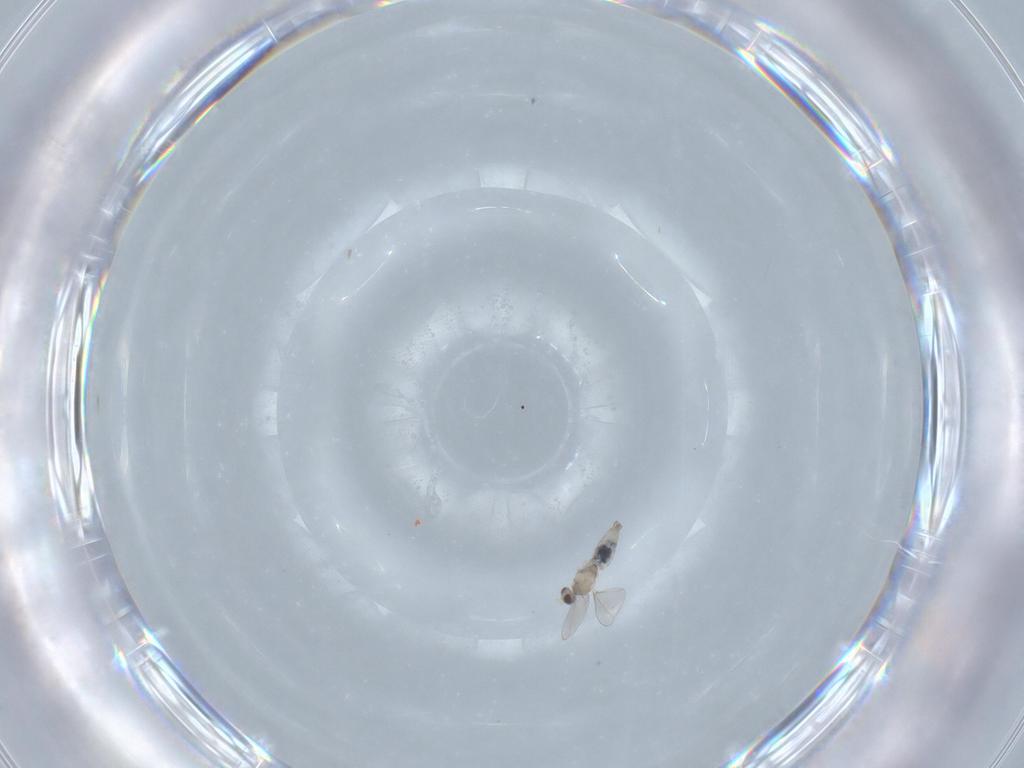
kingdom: Animalia
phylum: Arthropoda
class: Insecta
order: Diptera
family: Cecidomyiidae
